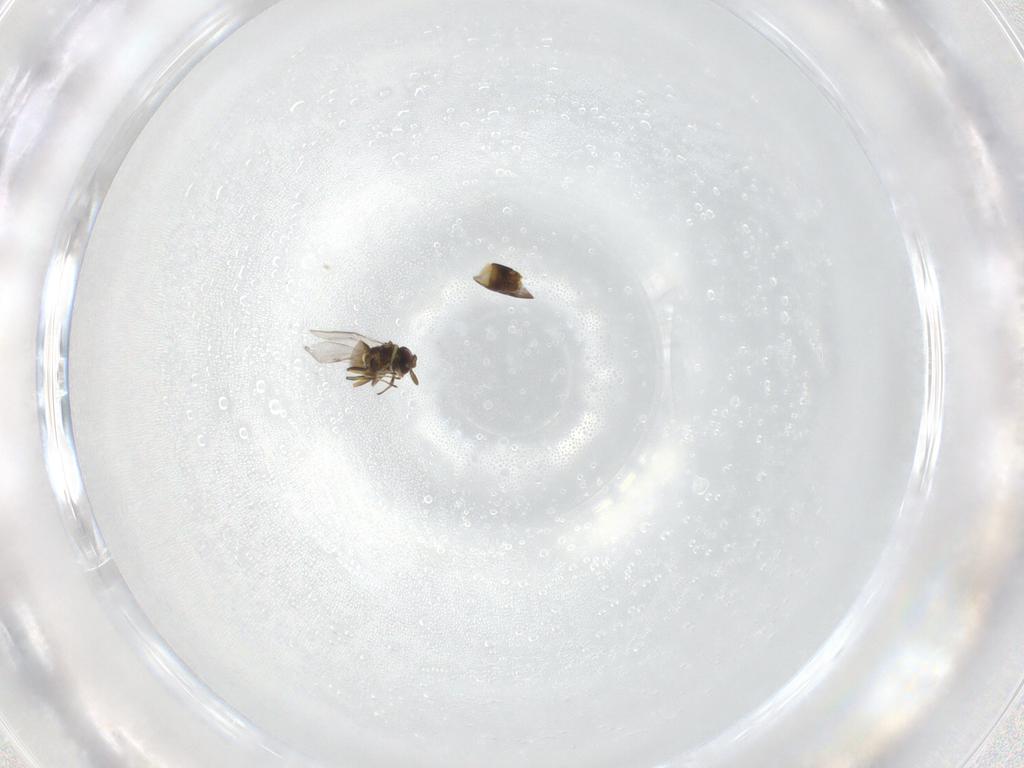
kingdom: Animalia
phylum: Arthropoda
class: Insecta
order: Hymenoptera
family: Encyrtidae
